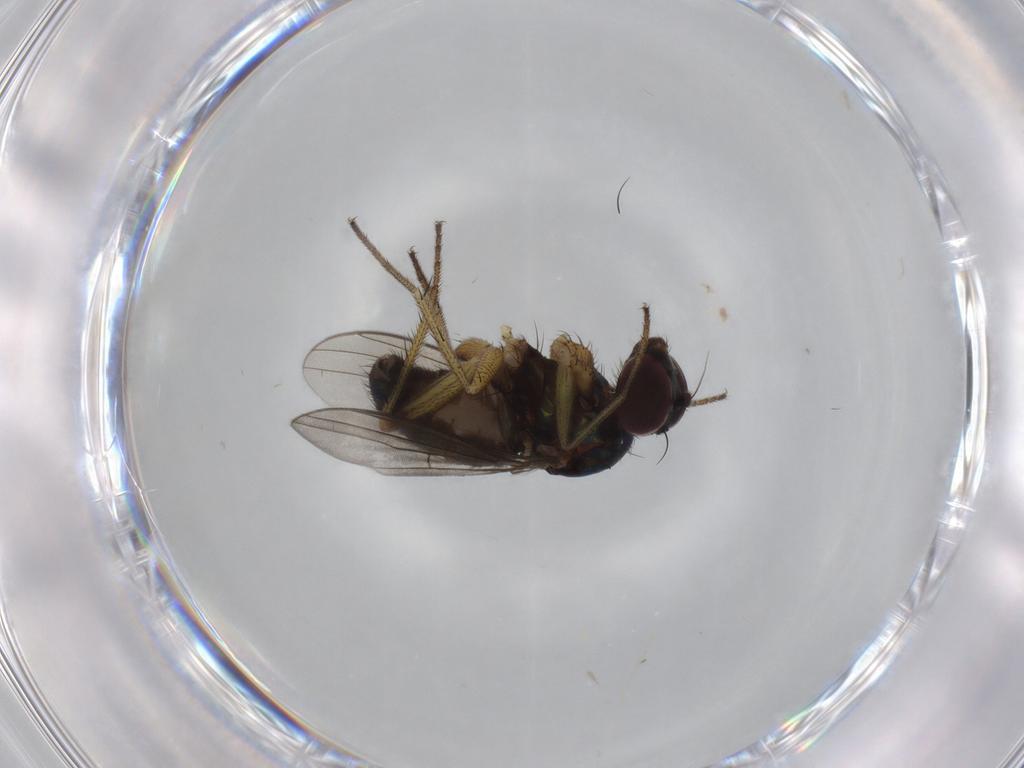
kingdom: Animalia
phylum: Arthropoda
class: Insecta
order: Diptera
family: Dolichopodidae
